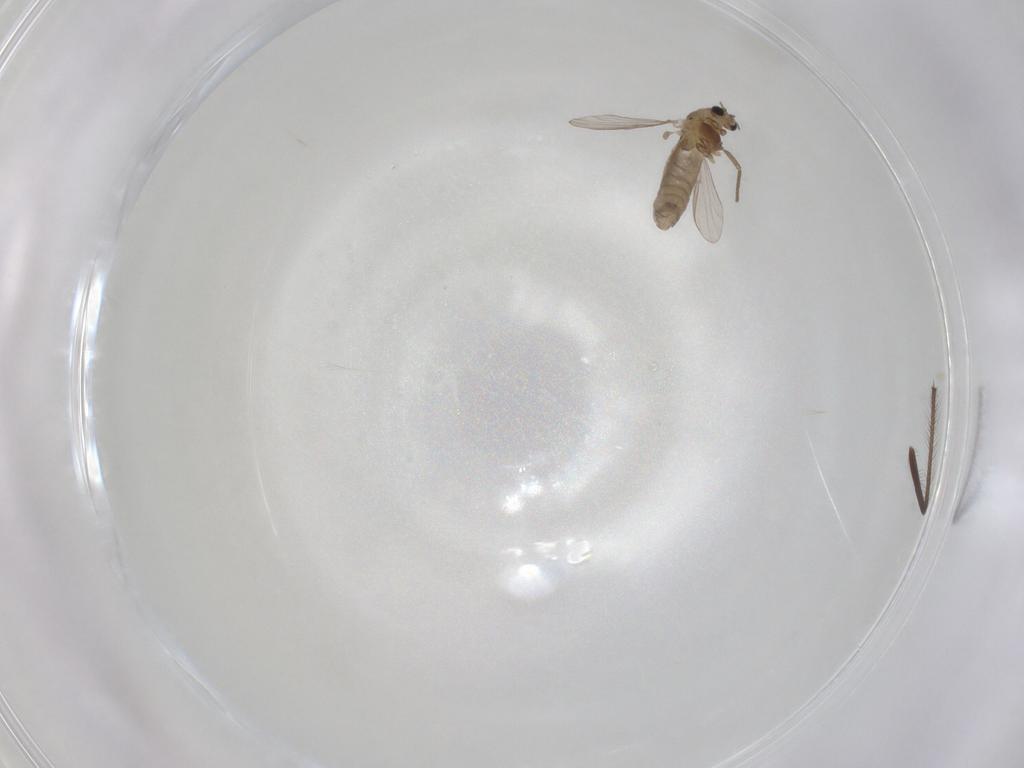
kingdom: Animalia
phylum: Arthropoda
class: Insecta
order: Diptera
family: Chironomidae
